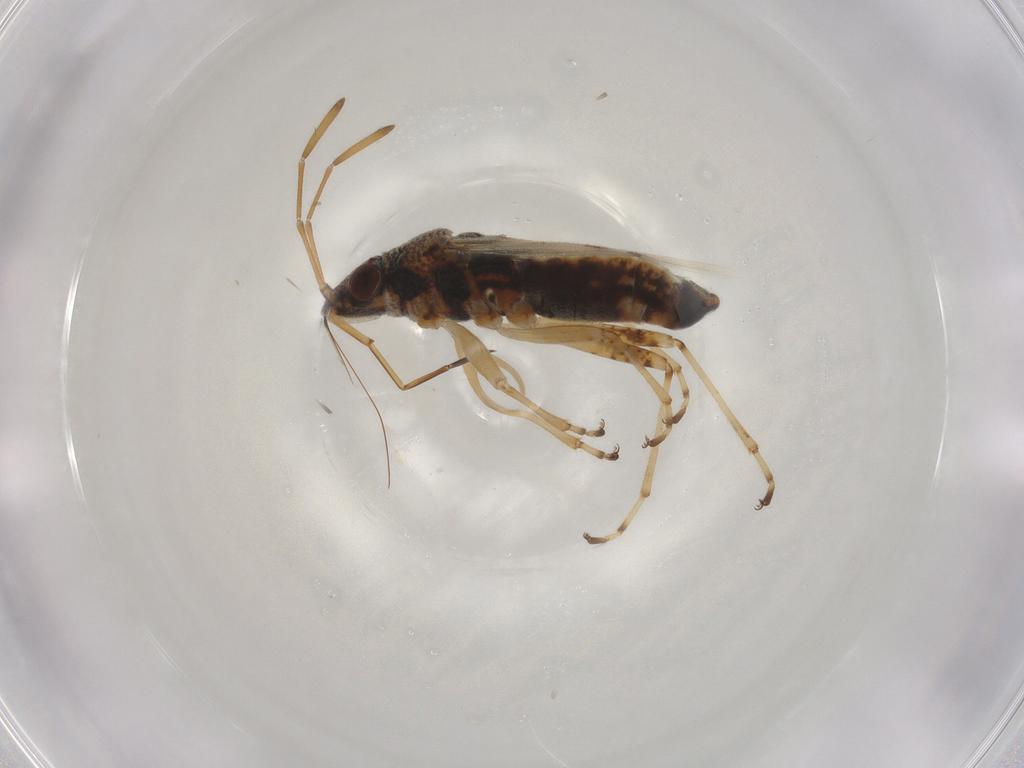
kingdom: Animalia
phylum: Arthropoda
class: Insecta
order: Hemiptera
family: Lygaeidae
